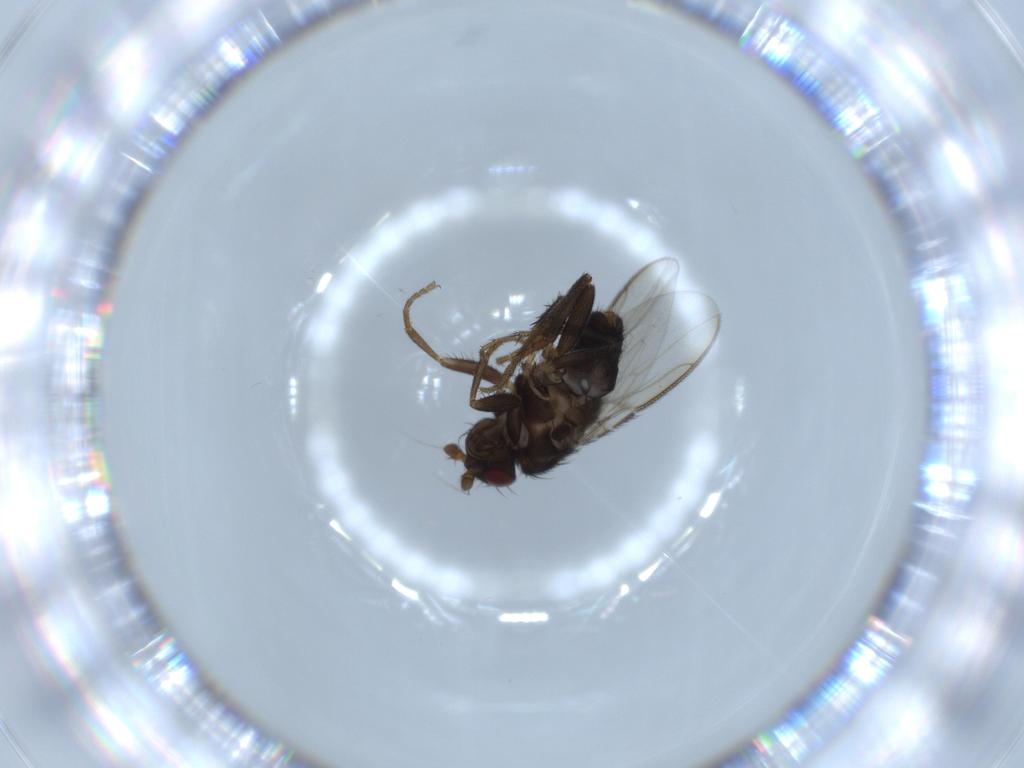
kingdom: Animalia
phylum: Arthropoda
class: Insecta
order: Diptera
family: Sphaeroceridae
